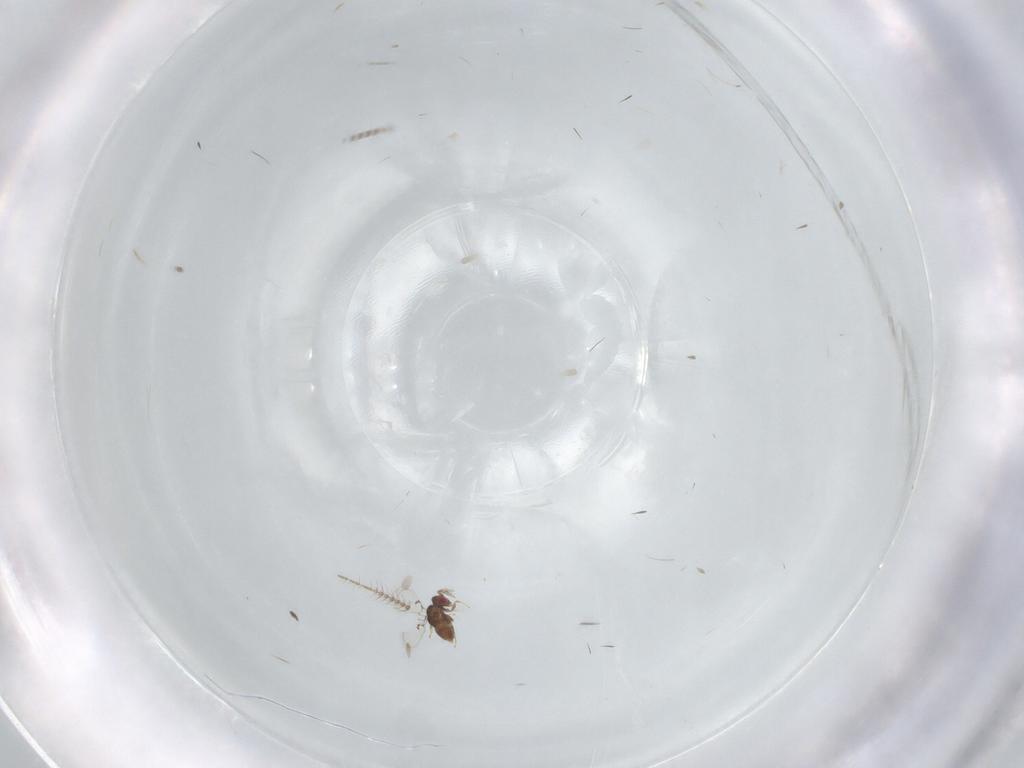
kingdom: Animalia
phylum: Arthropoda
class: Insecta
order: Hymenoptera
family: Trichogrammatidae
